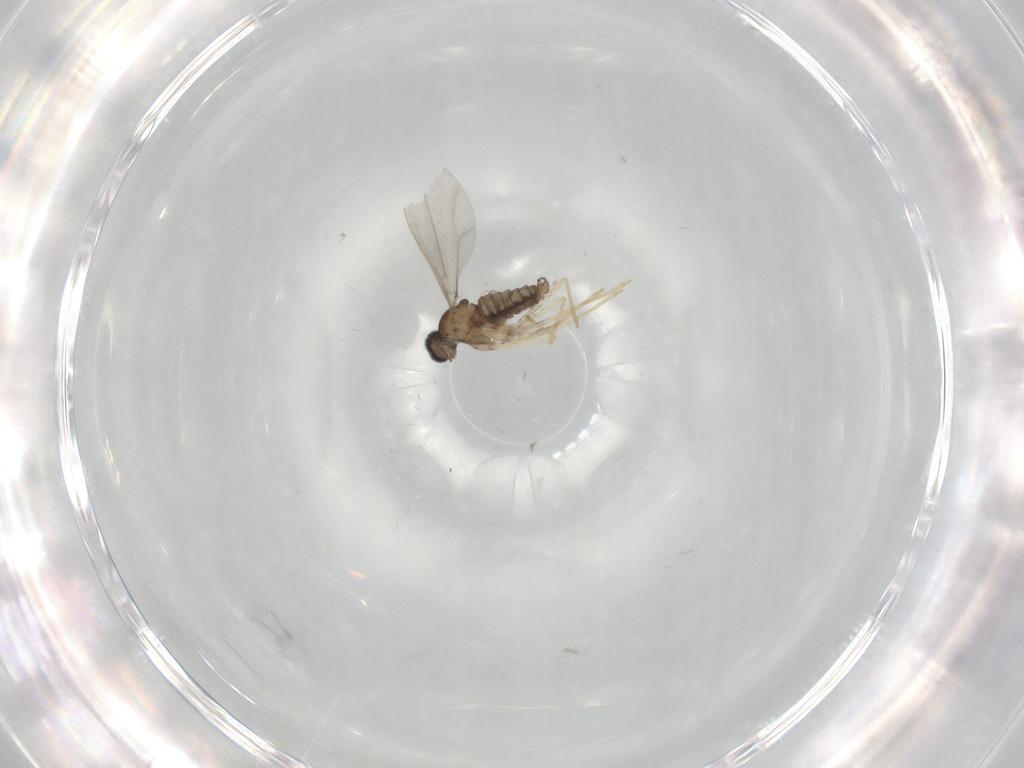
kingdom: Animalia
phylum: Arthropoda
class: Insecta
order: Diptera
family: Cecidomyiidae
